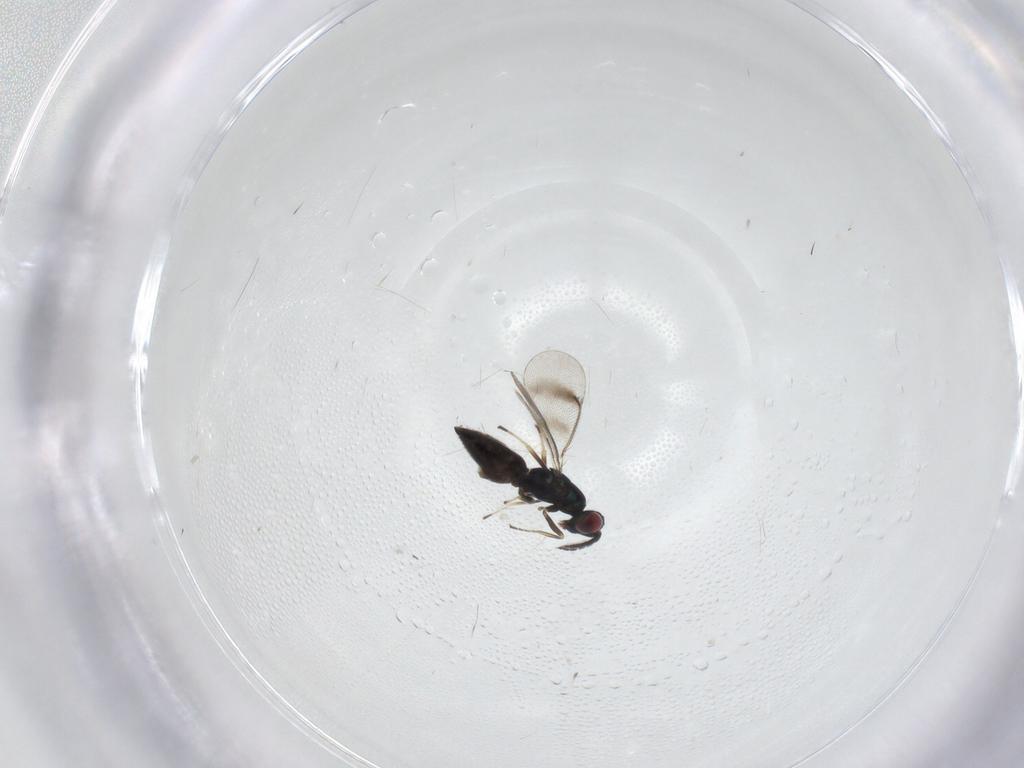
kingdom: Animalia
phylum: Arthropoda
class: Insecta
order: Hymenoptera
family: Eulophidae
